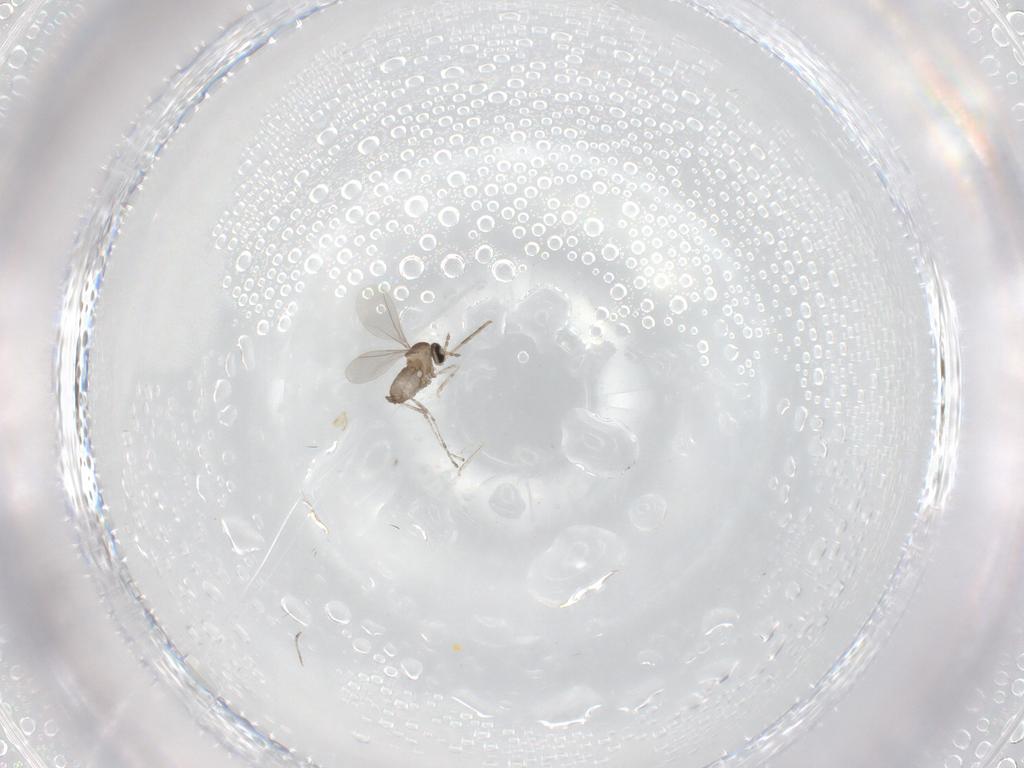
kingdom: Animalia
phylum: Arthropoda
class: Insecta
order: Diptera
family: Cecidomyiidae
